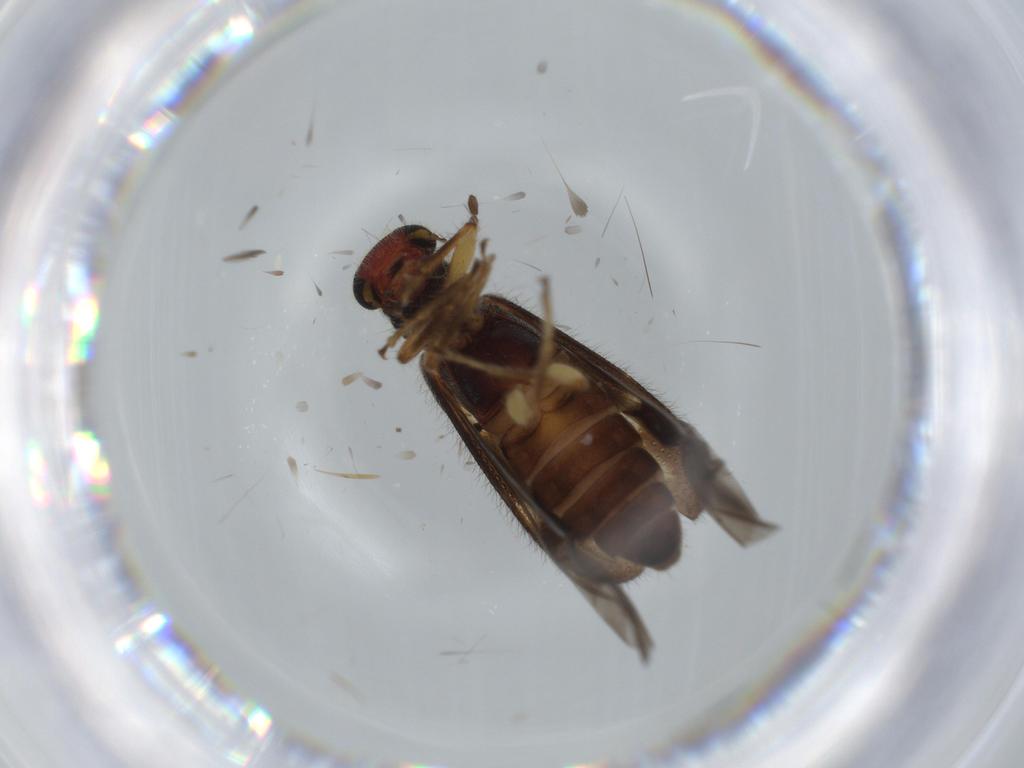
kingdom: Animalia
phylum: Arthropoda
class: Insecta
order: Coleoptera
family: Cleridae
